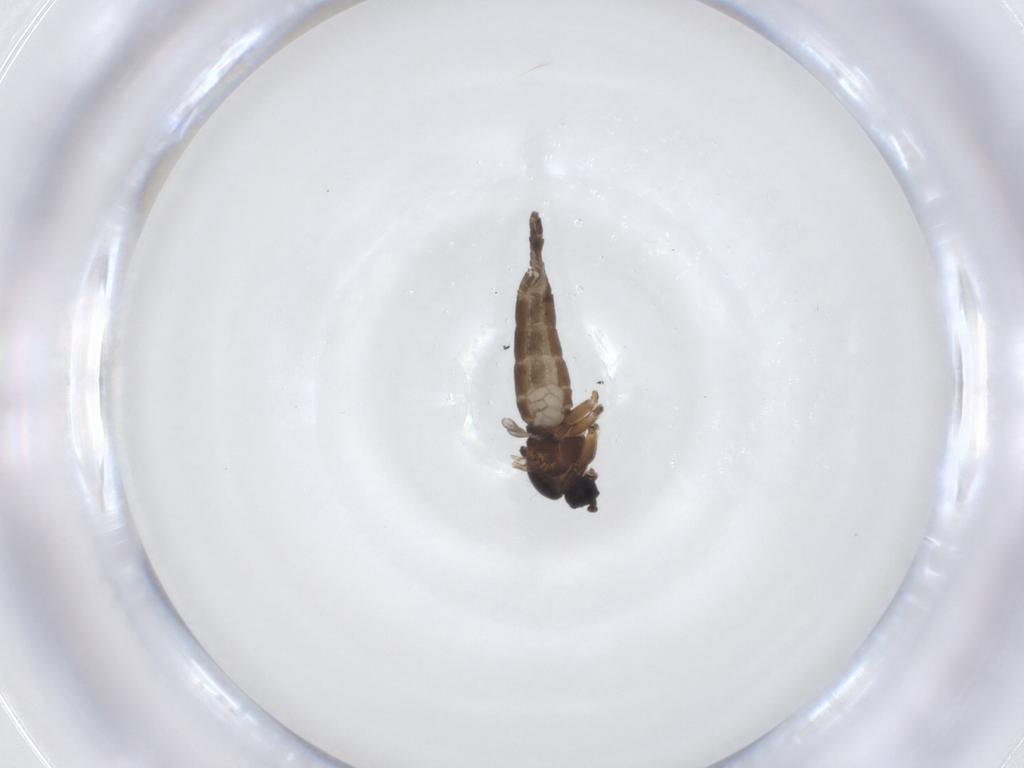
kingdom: Animalia
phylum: Arthropoda
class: Insecta
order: Diptera
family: Sciaridae
